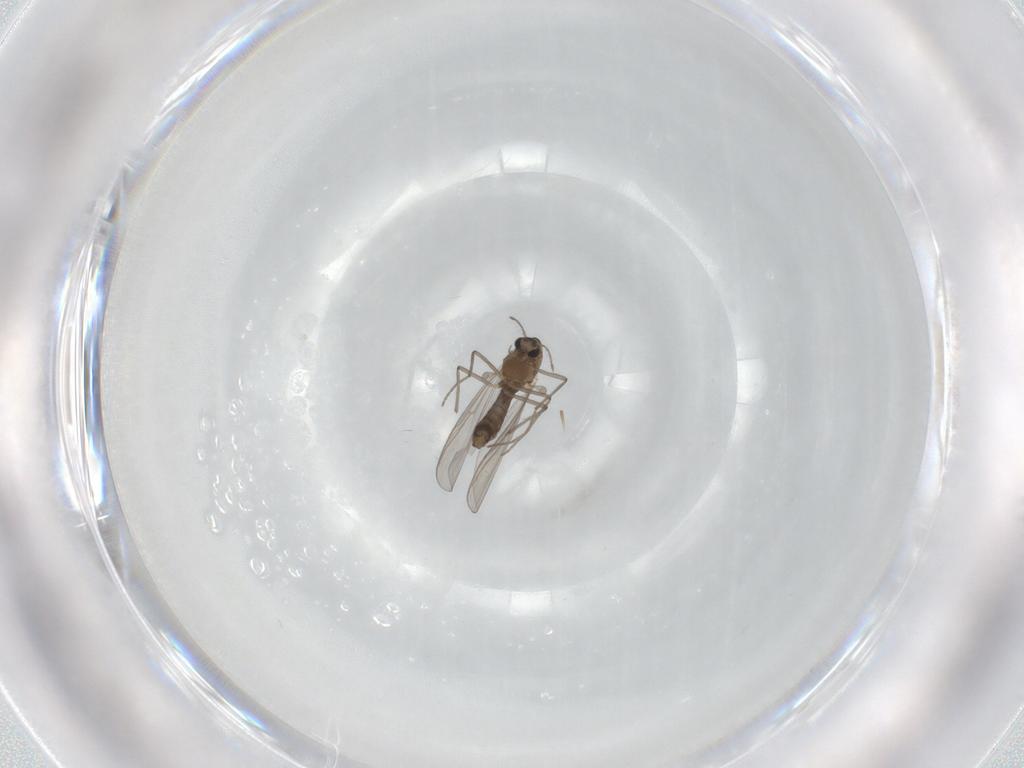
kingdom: Animalia
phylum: Arthropoda
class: Insecta
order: Diptera
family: Chironomidae
